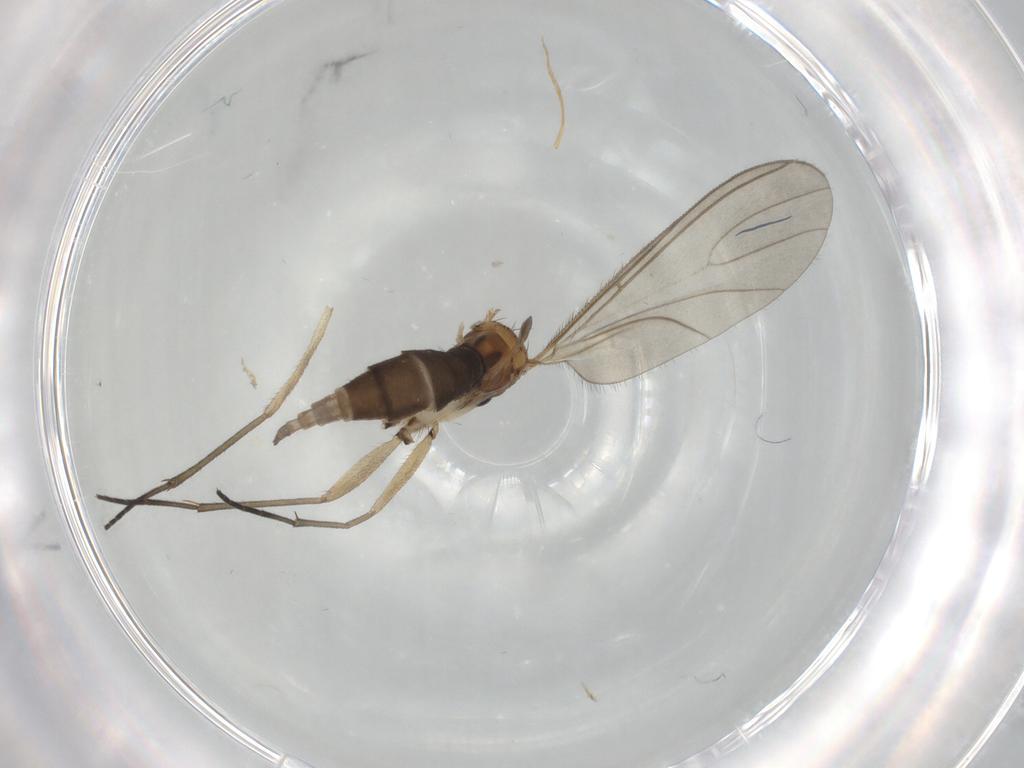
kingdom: Animalia
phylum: Arthropoda
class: Insecta
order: Diptera
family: Sciaridae
